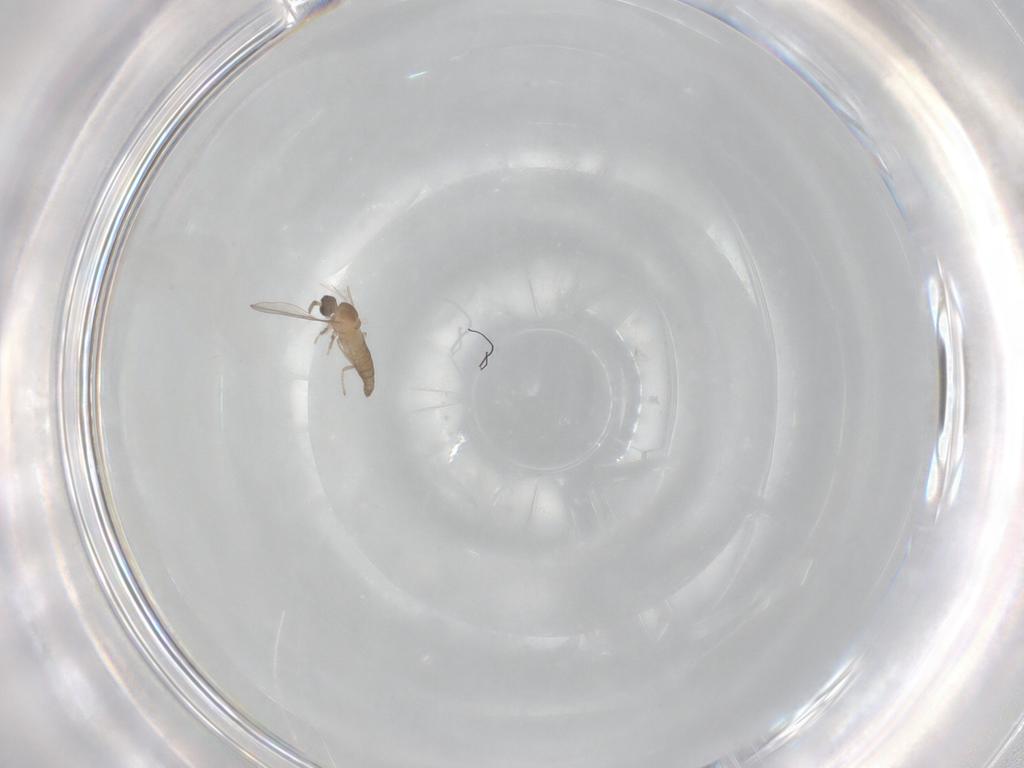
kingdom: Animalia
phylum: Arthropoda
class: Insecta
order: Diptera
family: Cecidomyiidae
